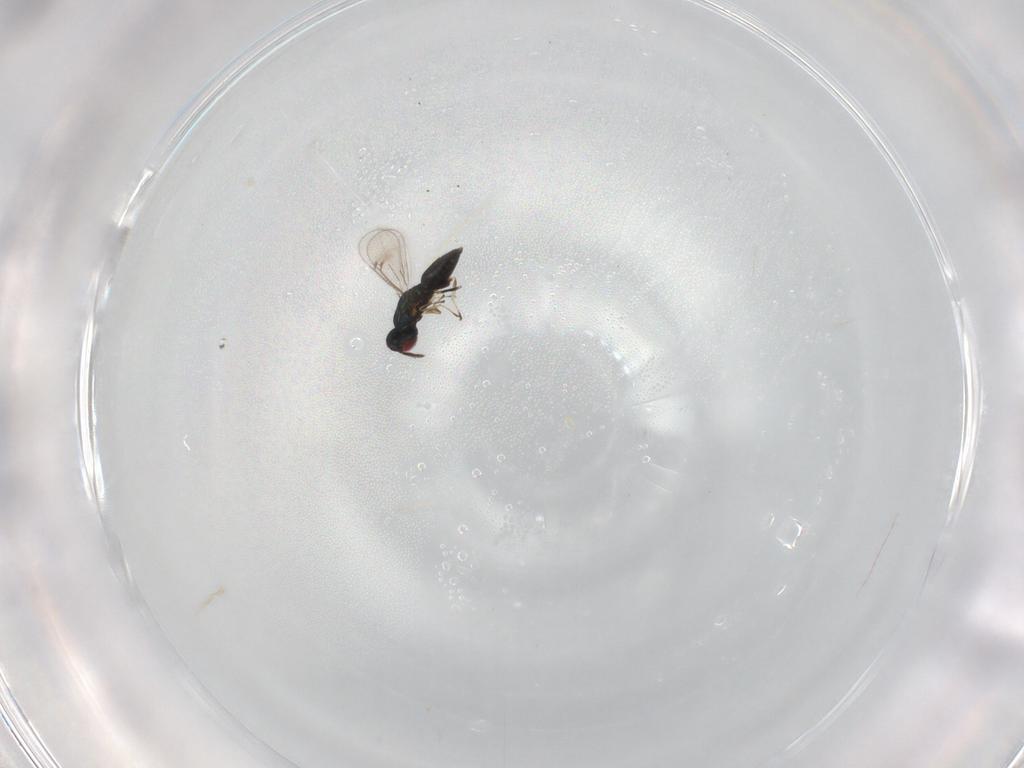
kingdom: Animalia
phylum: Arthropoda
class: Insecta
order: Hymenoptera
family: Eulophidae
